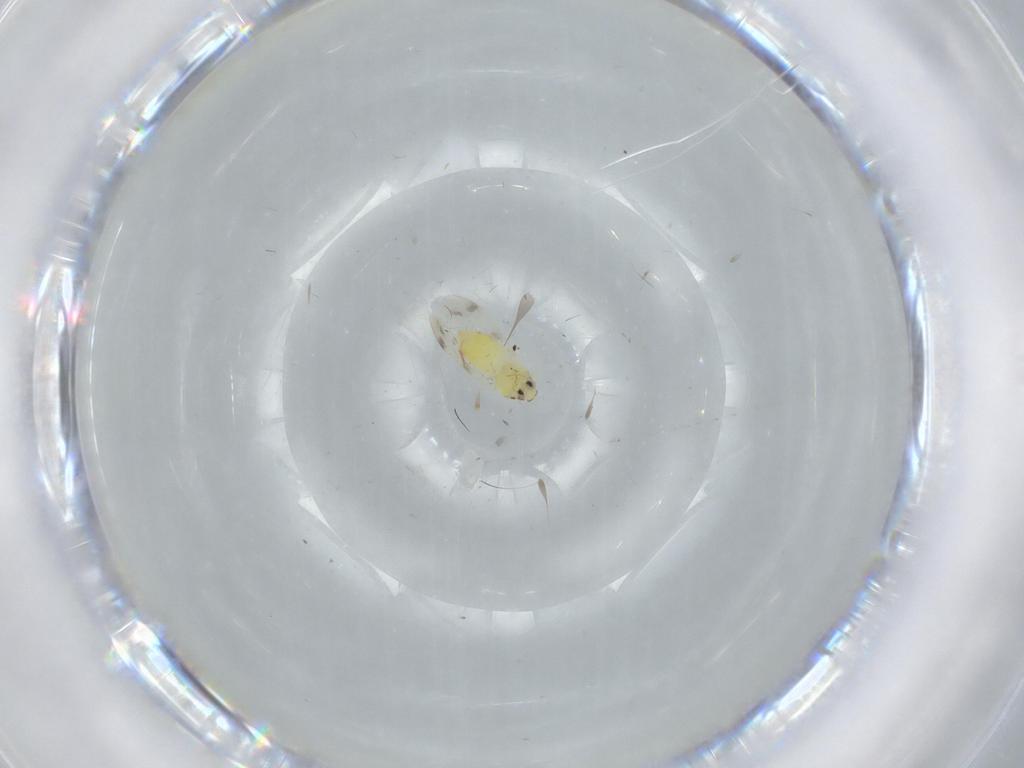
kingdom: Animalia
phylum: Arthropoda
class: Insecta
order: Hemiptera
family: Aleyrodidae
